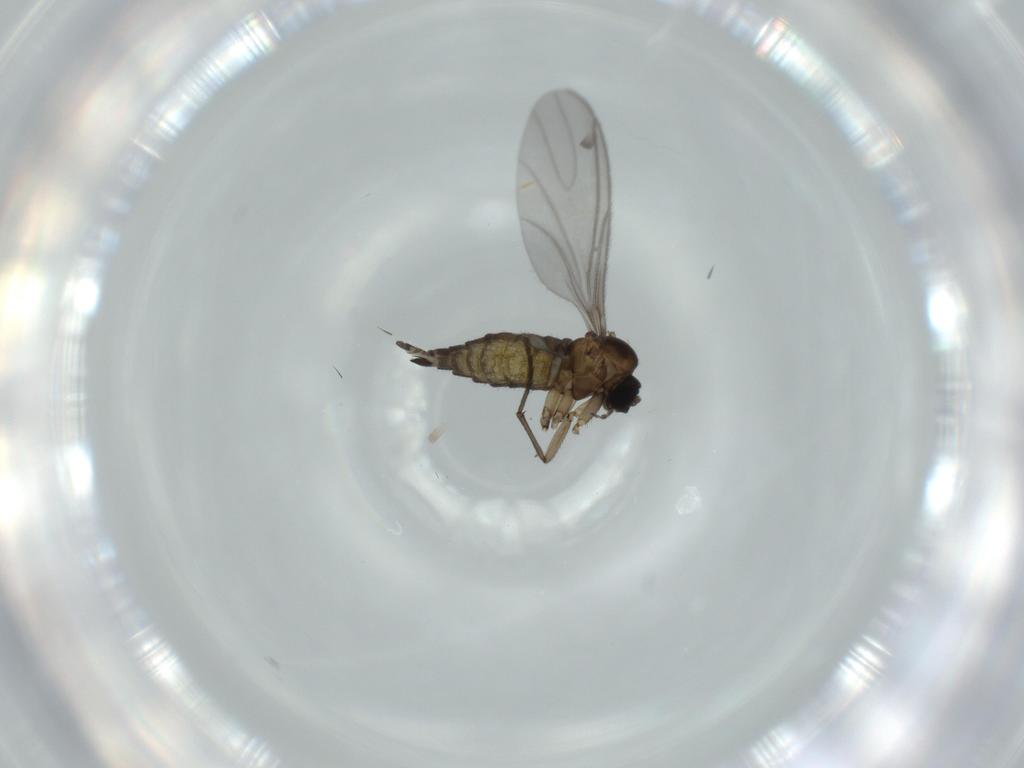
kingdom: Animalia
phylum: Arthropoda
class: Insecta
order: Diptera
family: Sciaridae
